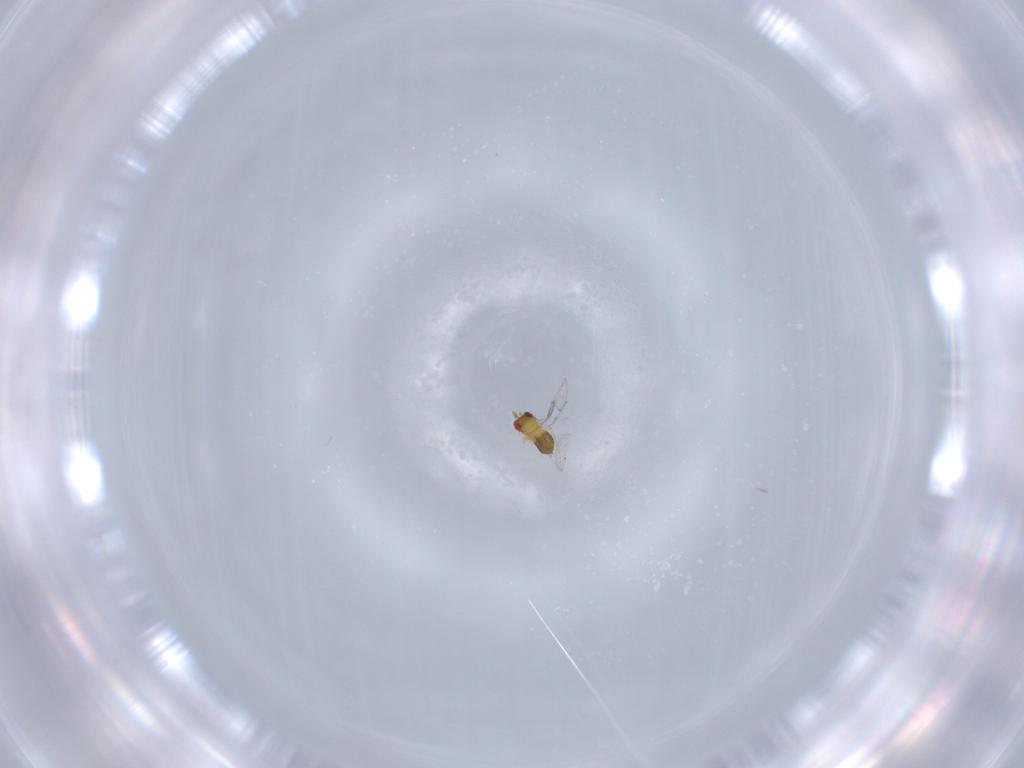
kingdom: Animalia
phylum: Arthropoda
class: Insecta
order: Hymenoptera
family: Trichogrammatidae
